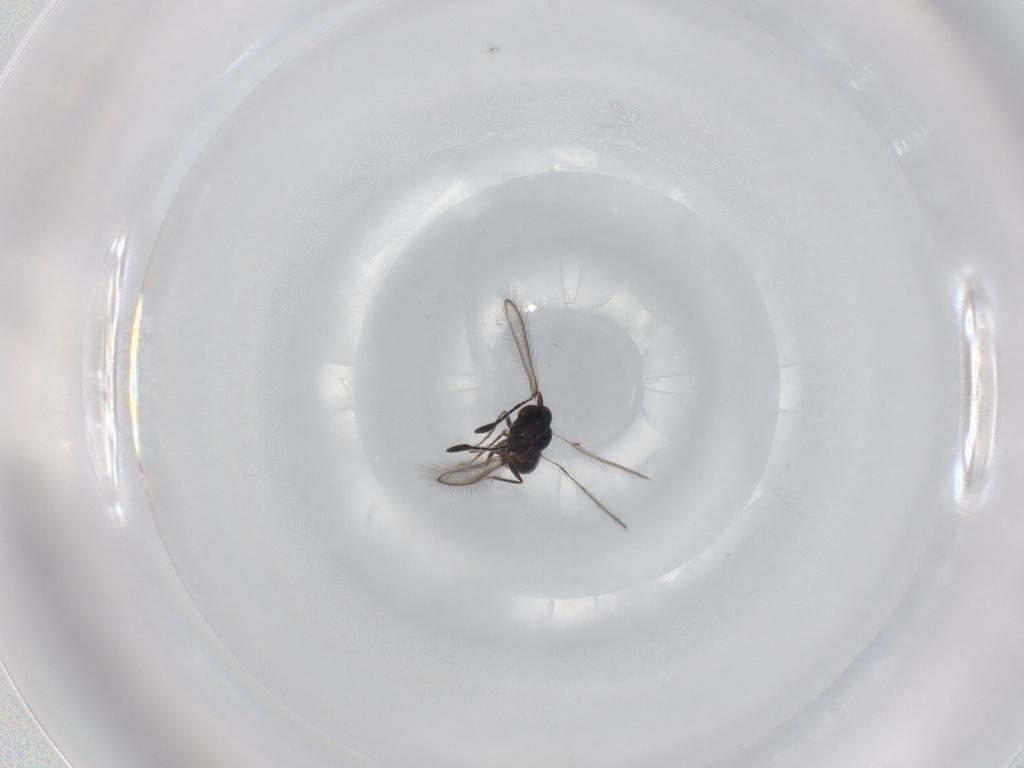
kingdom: Animalia
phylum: Arthropoda
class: Insecta
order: Hymenoptera
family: Mymaridae
